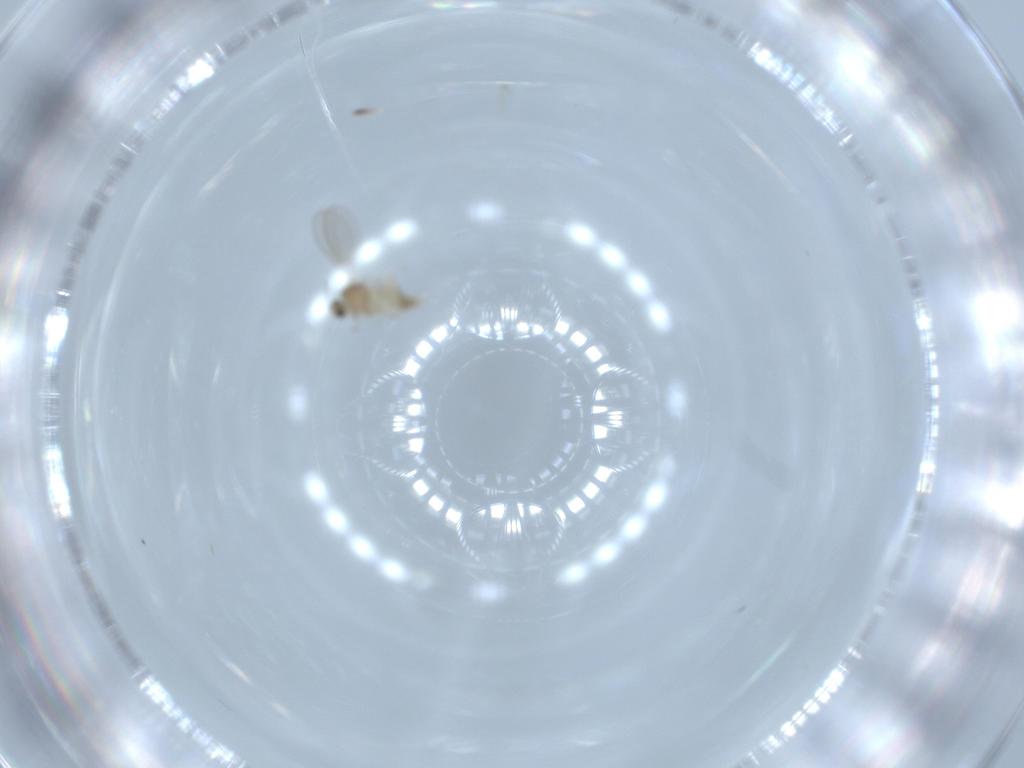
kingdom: Animalia
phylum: Arthropoda
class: Insecta
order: Diptera
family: Cecidomyiidae
